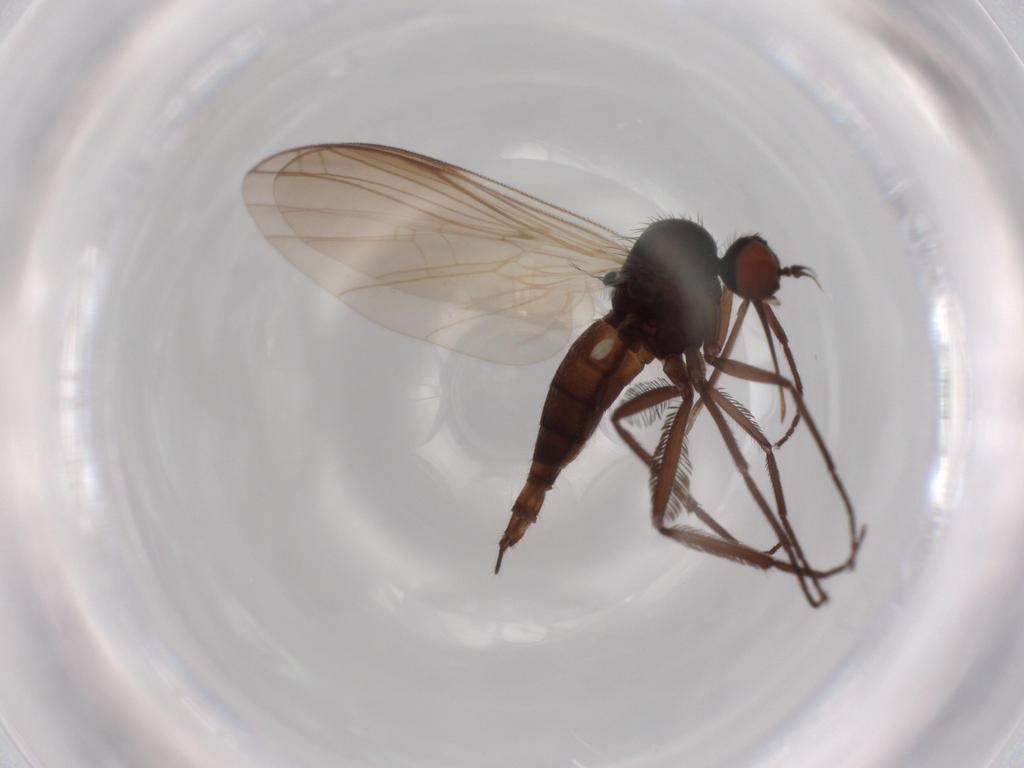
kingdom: Animalia
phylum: Arthropoda
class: Insecta
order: Diptera
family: Empididae
